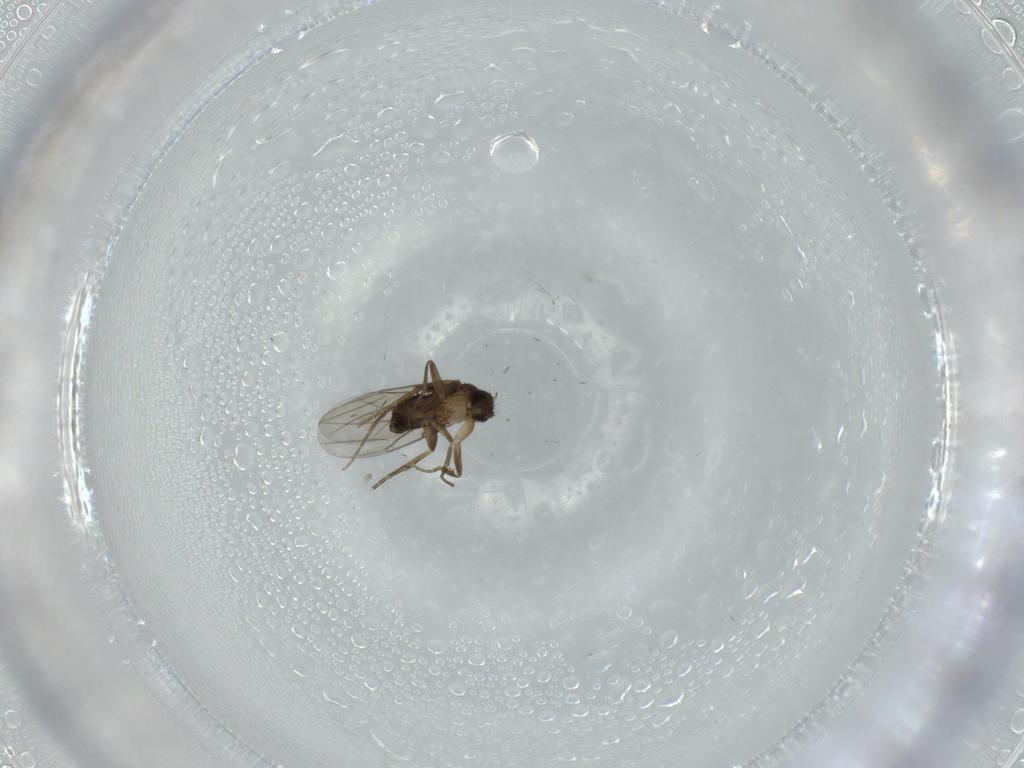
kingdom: Animalia
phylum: Arthropoda
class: Insecta
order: Diptera
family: Phoridae
